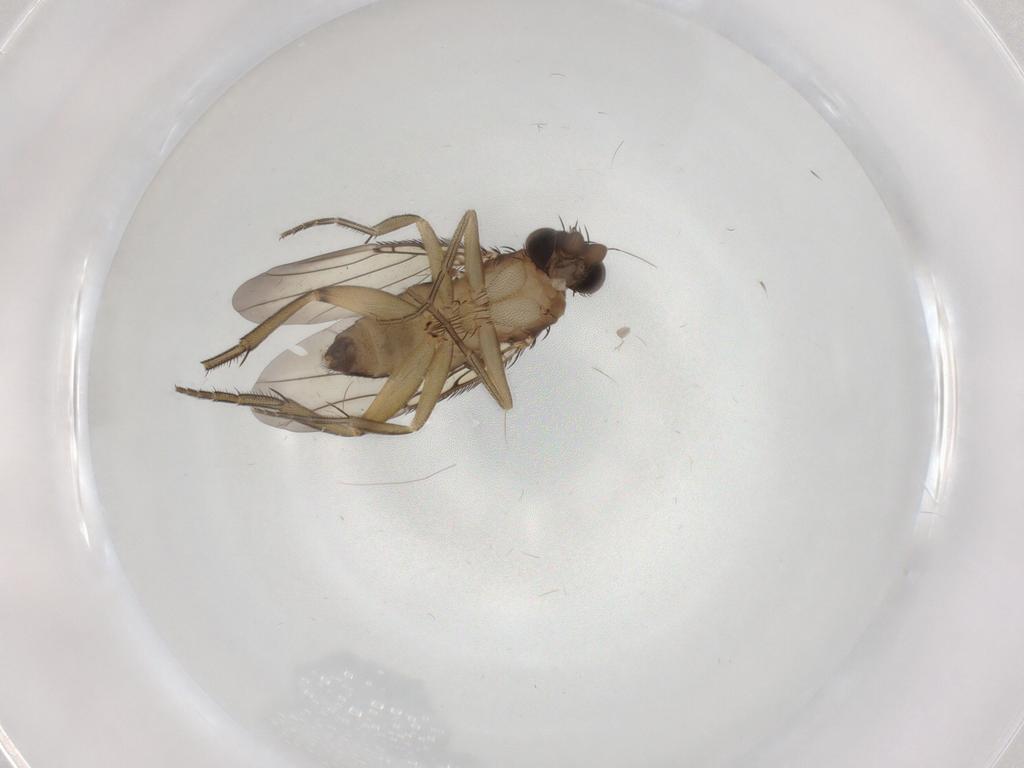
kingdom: Animalia
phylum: Arthropoda
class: Insecta
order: Diptera
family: Phoridae
